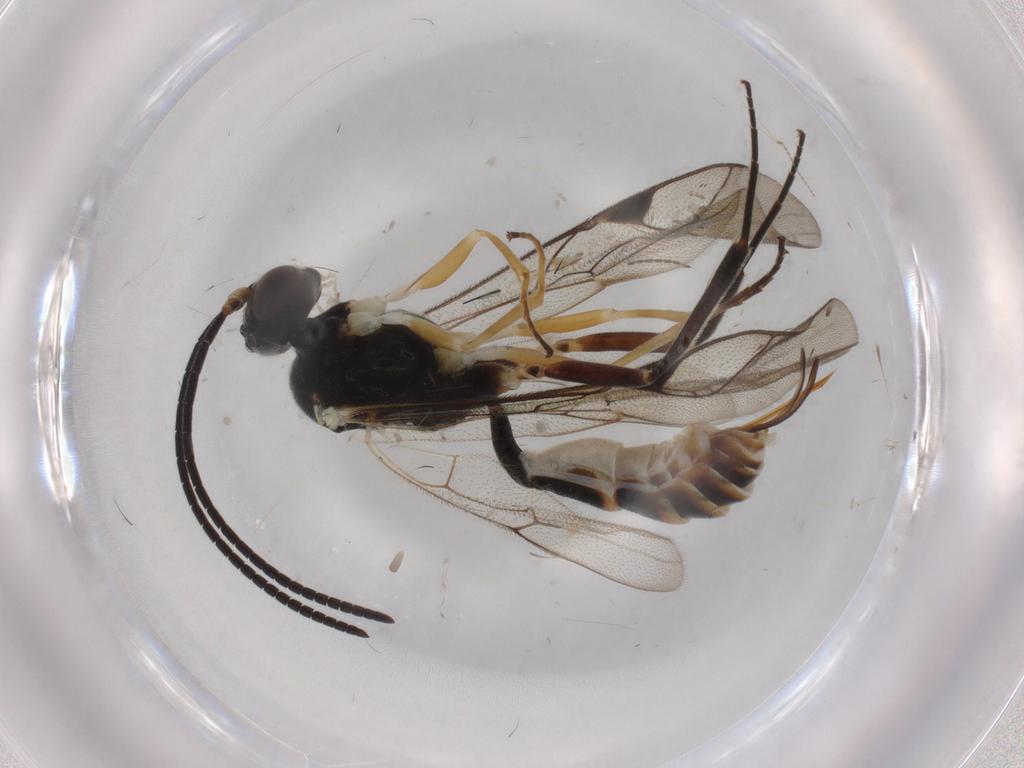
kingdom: Animalia
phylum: Arthropoda
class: Insecta
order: Hymenoptera
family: Ichneumonidae
